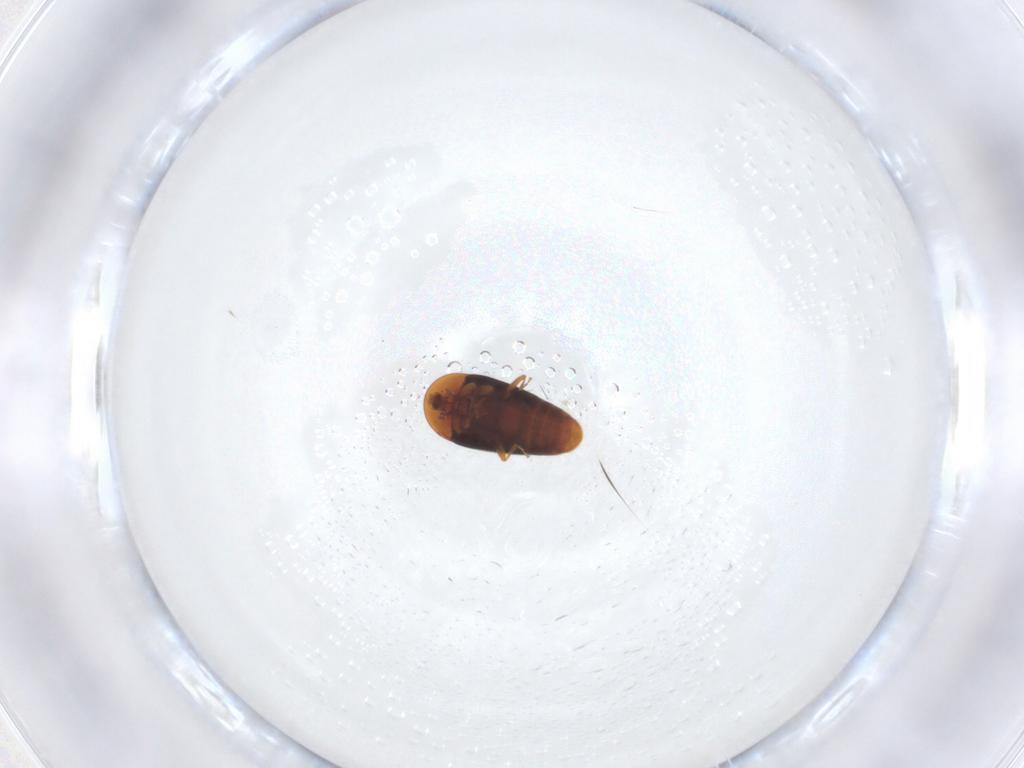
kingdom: Animalia
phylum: Arthropoda
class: Insecta
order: Coleoptera
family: Corylophidae
